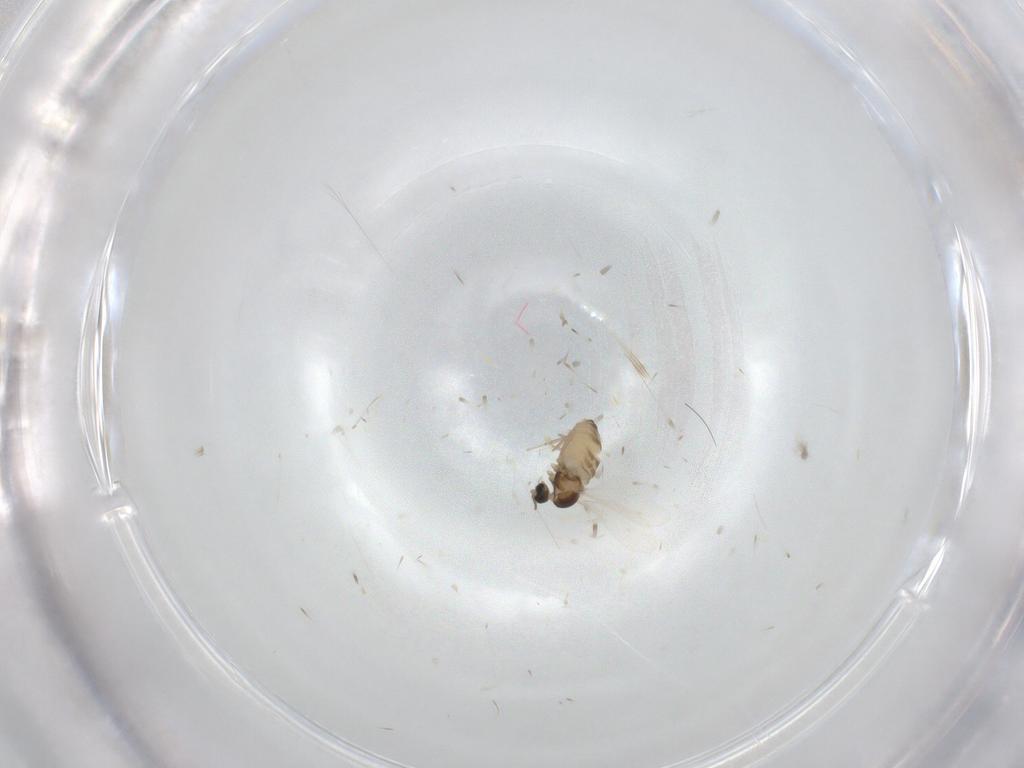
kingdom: Animalia
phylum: Arthropoda
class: Insecta
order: Diptera
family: Cecidomyiidae
